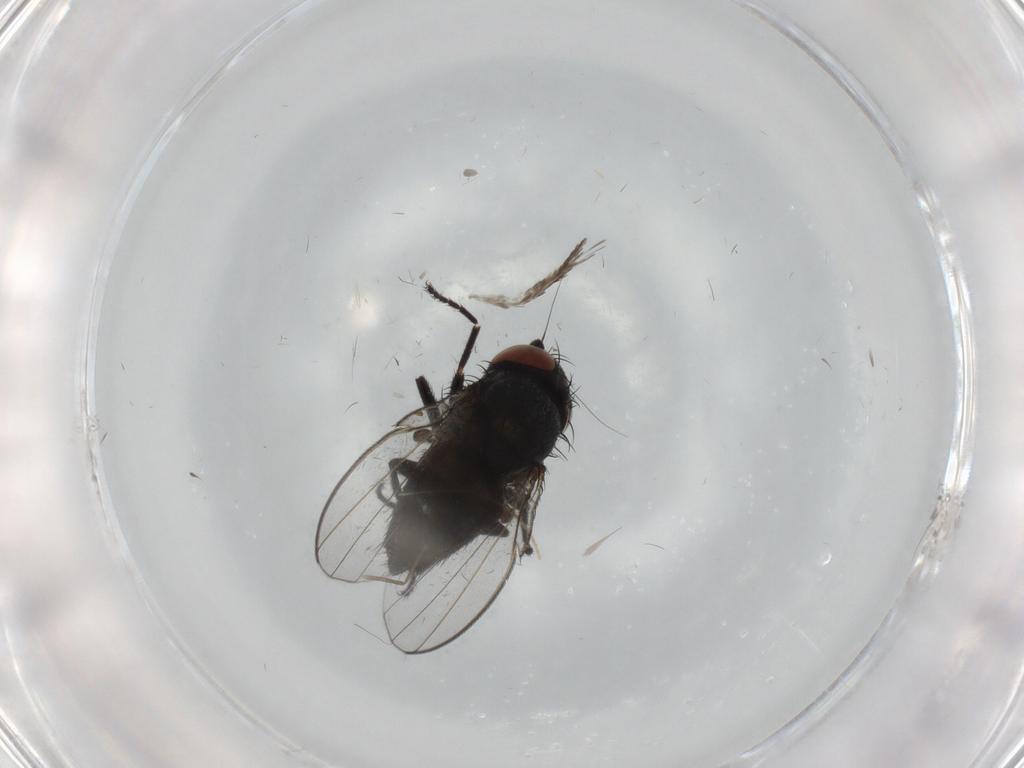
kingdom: Animalia
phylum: Arthropoda
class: Insecta
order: Diptera
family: Milichiidae
